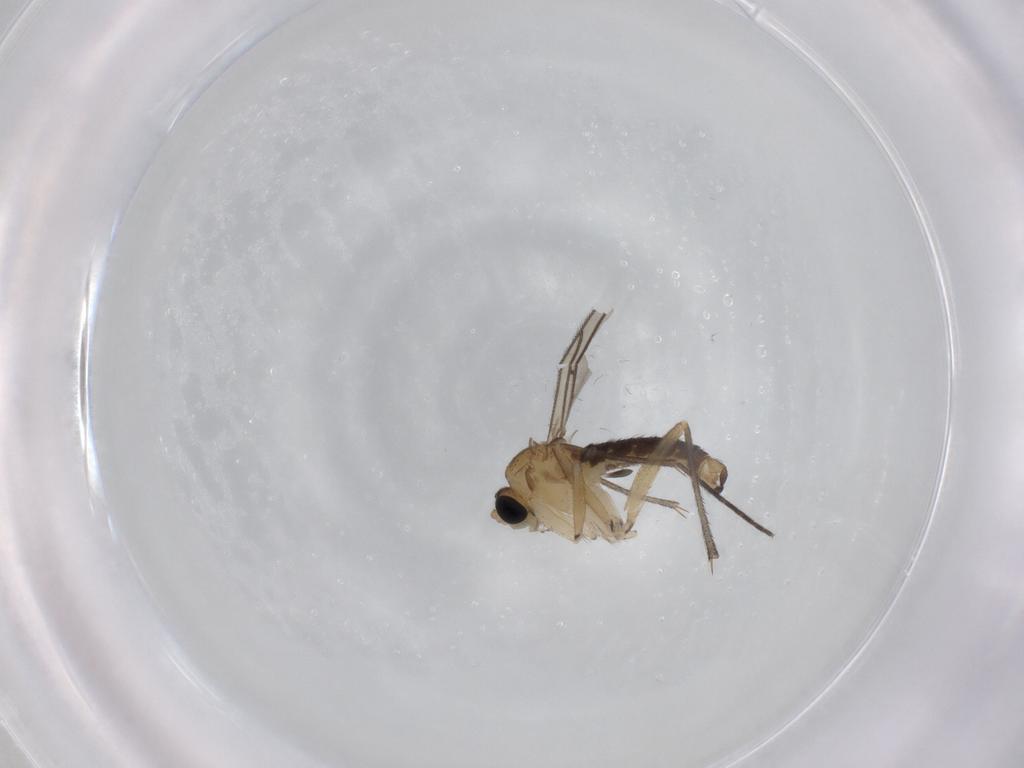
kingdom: Animalia
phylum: Arthropoda
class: Insecta
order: Diptera
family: Sciaridae
